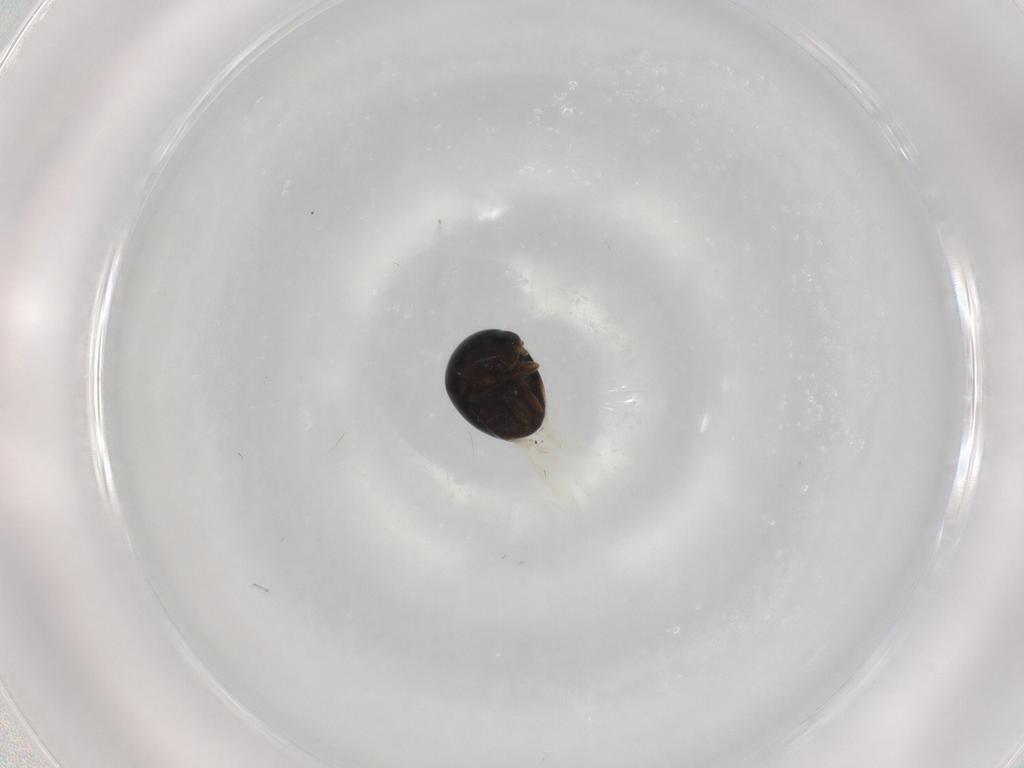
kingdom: Animalia
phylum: Arthropoda
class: Insecta
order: Coleoptera
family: Cybocephalidae
